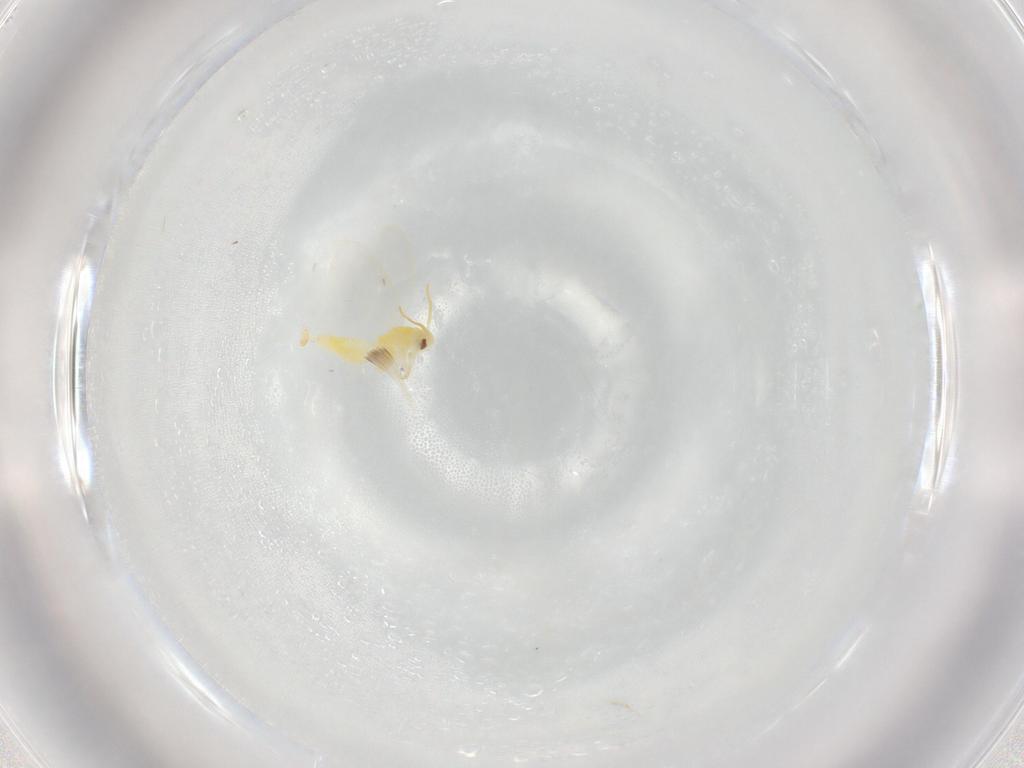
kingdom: Animalia
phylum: Arthropoda
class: Insecta
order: Hemiptera
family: Aleyrodidae
